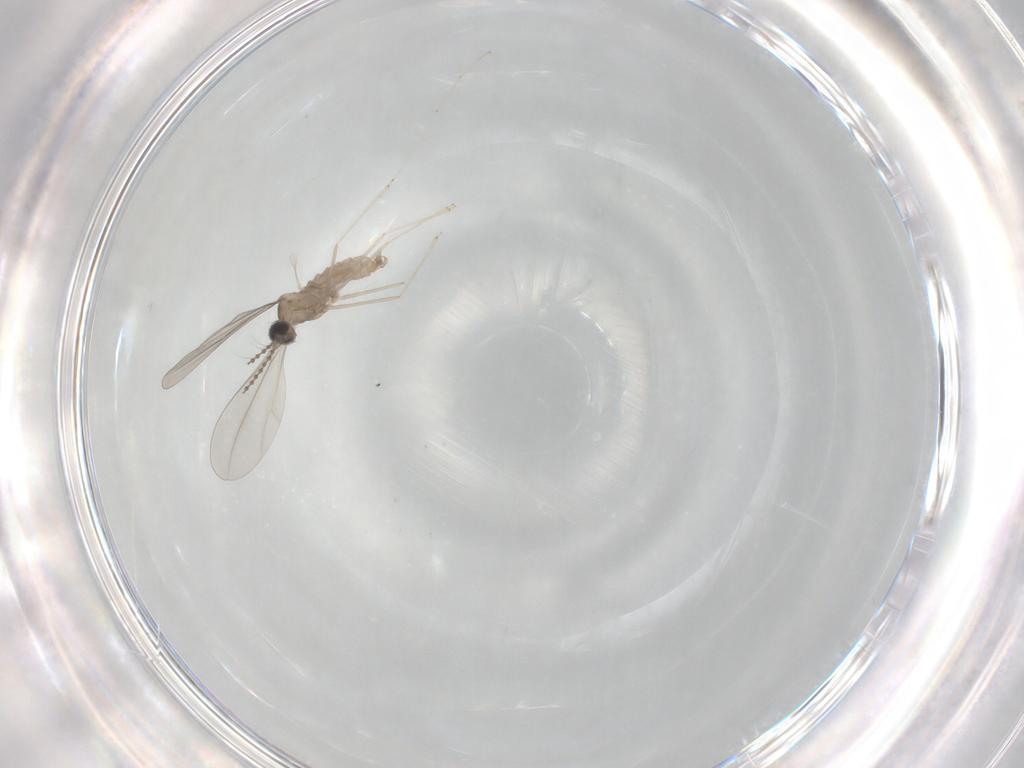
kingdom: Animalia
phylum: Arthropoda
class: Insecta
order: Diptera
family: Cecidomyiidae
